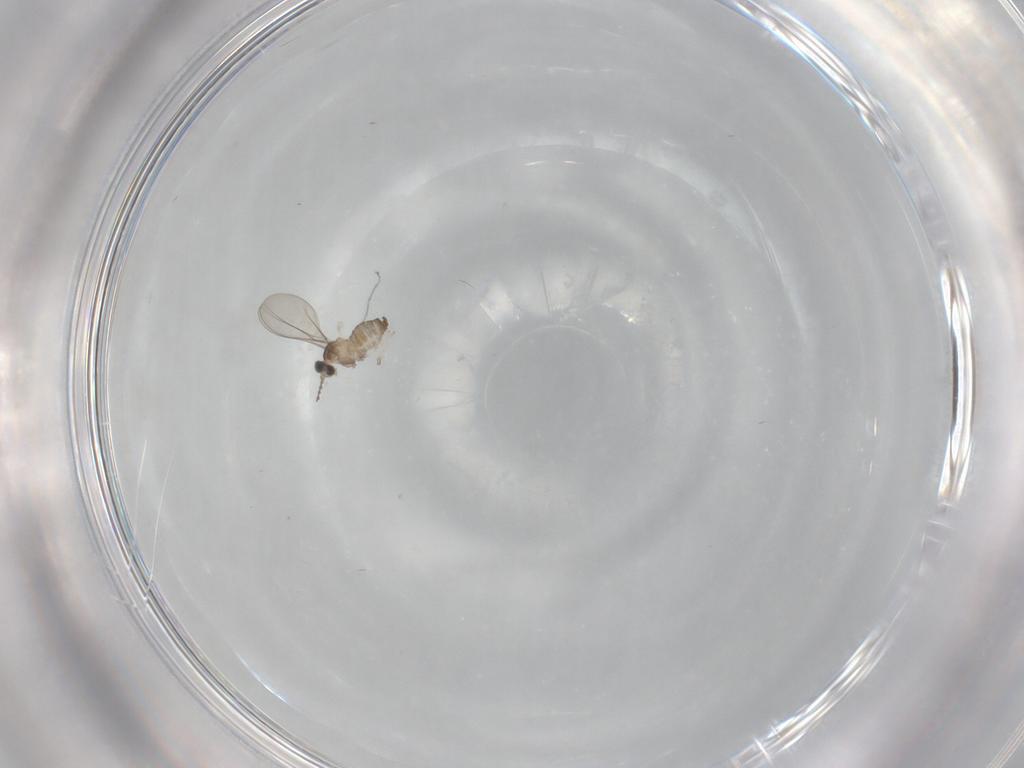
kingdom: Animalia
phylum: Arthropoda
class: Insecta
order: Diptera
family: Cecidomyiidae
